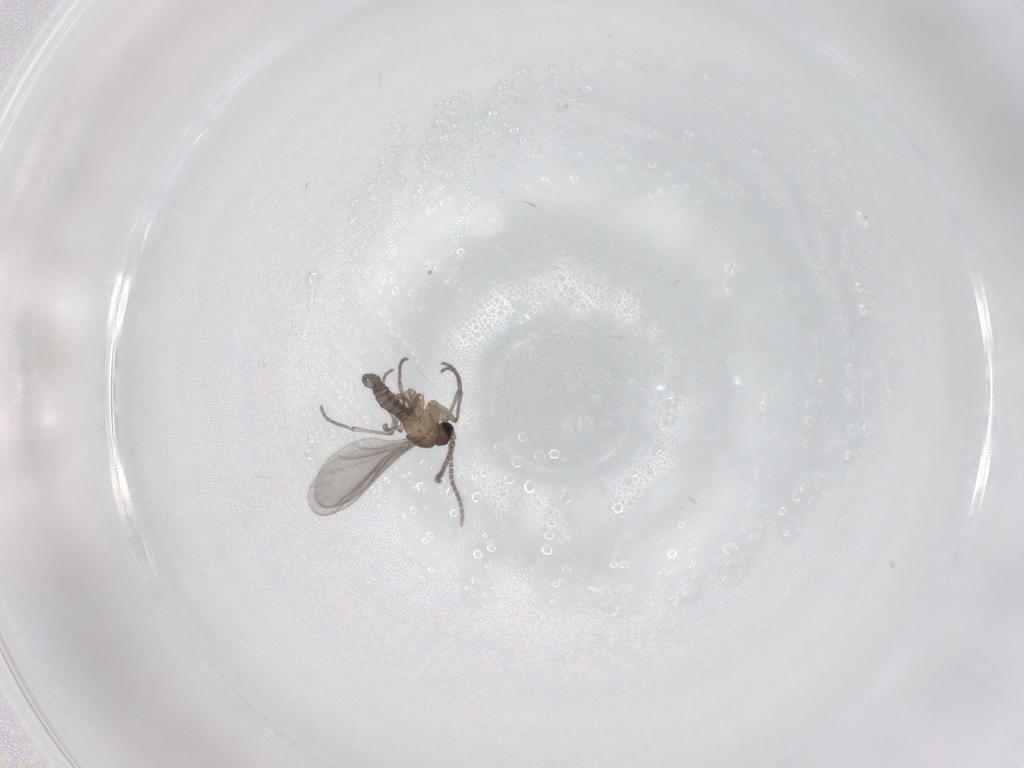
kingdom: Animalia
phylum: Arthropoda
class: Insecta
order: Diptera
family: Sciaridae
